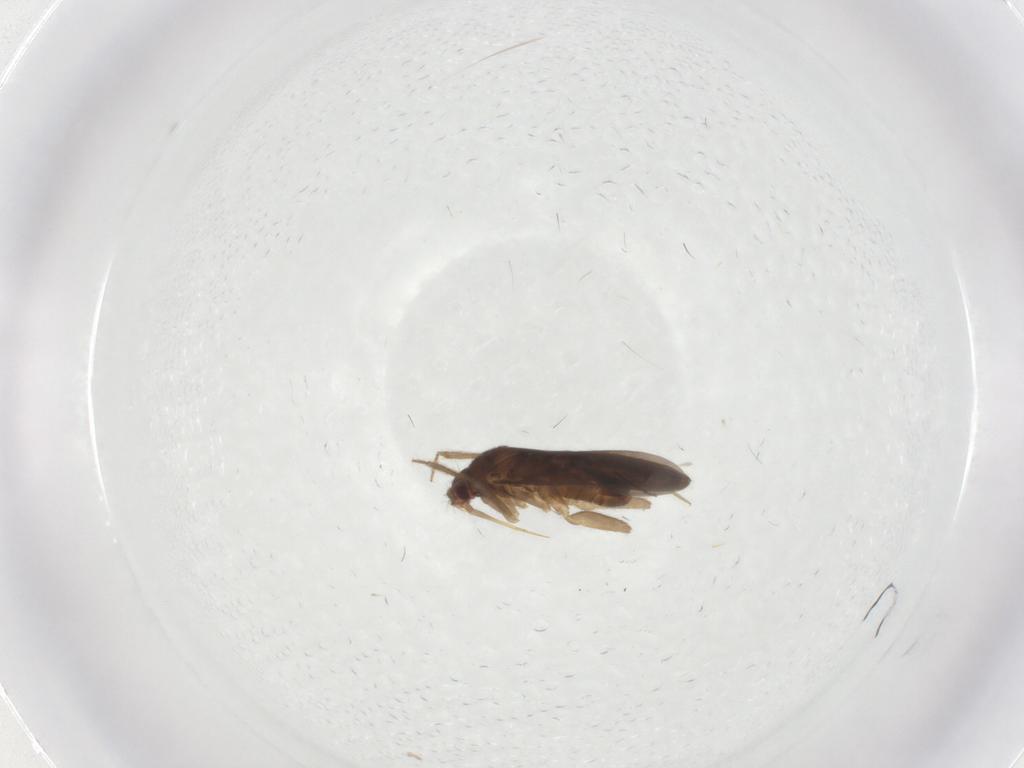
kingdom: Animalia
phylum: Arthropoda
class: Insecta
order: Hemiptera
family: Ceratocombidae
